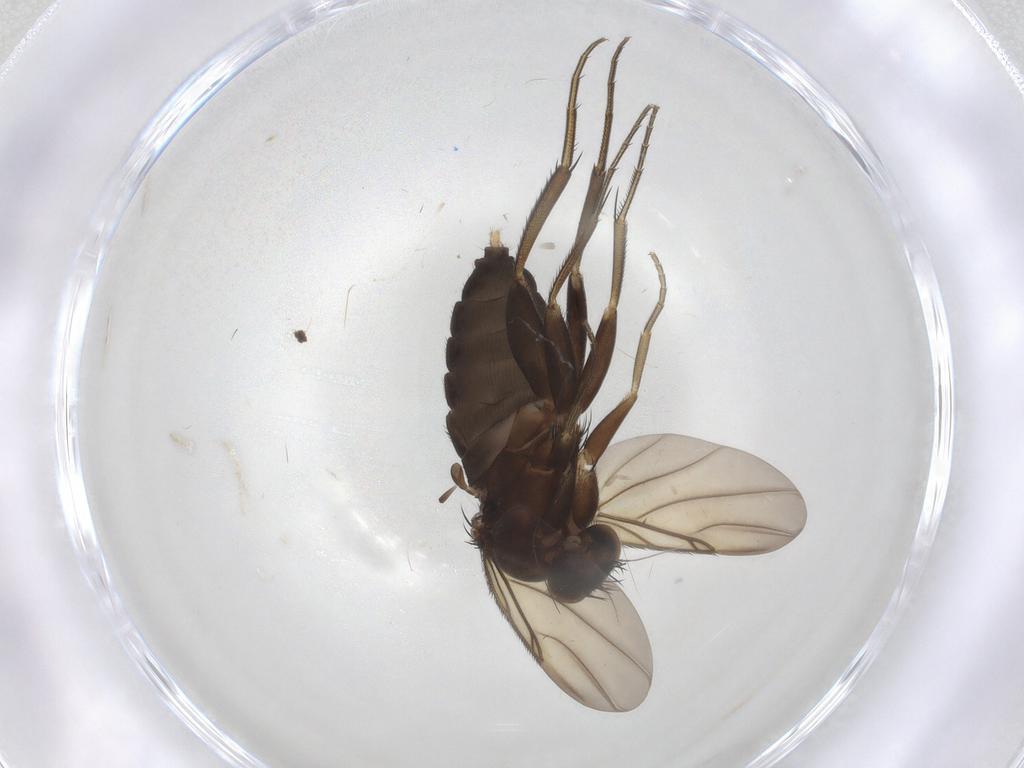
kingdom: Animalia
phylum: Arthropoda
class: Insecta
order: Diptera
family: Phoridae
